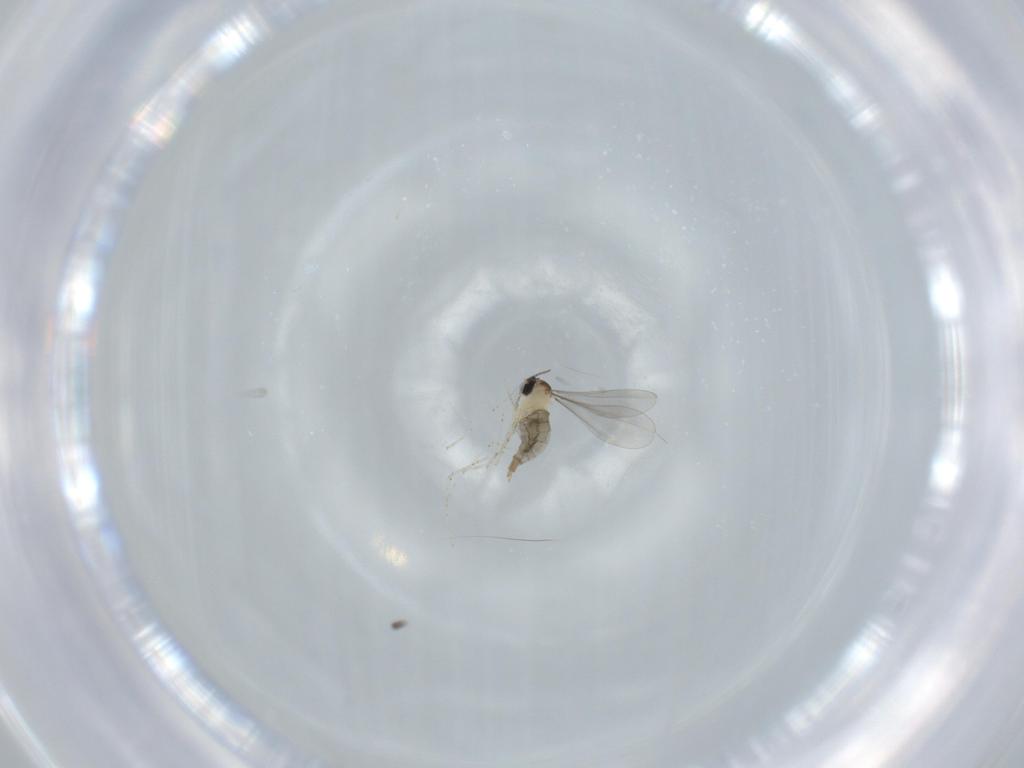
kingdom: Animalia
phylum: Arthropoda
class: Insecta
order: Diptera
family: Cecidomyiidae
